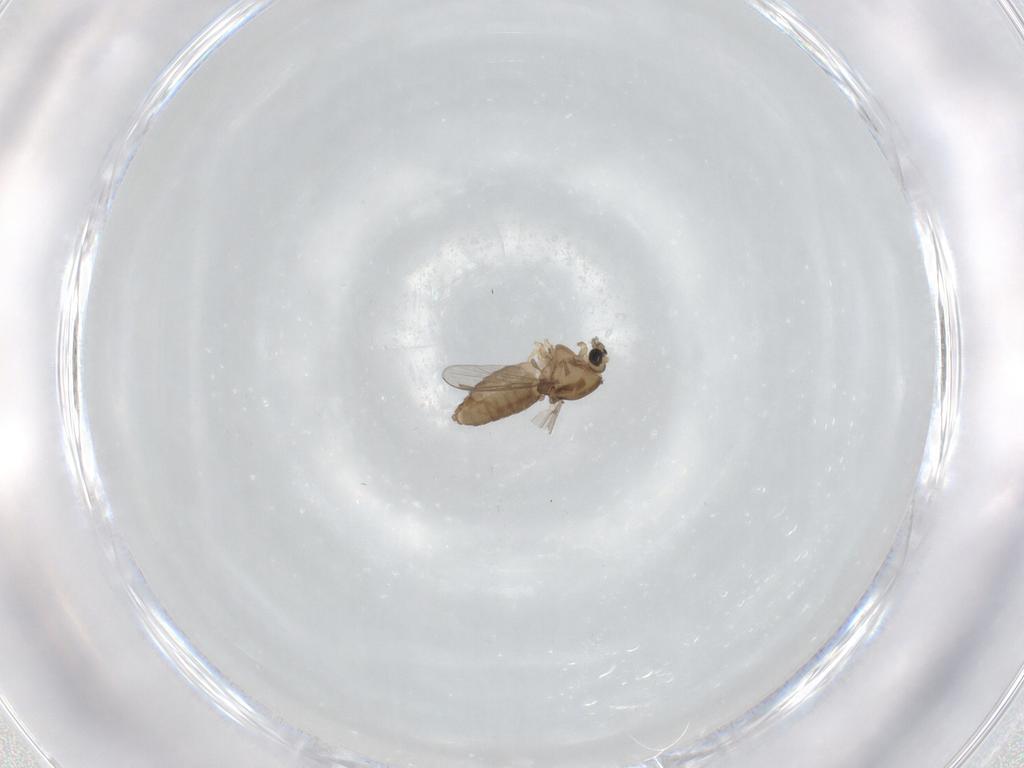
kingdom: Animalia
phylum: Arthropoda
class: Insecta
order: Diptera
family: Chironomidae
